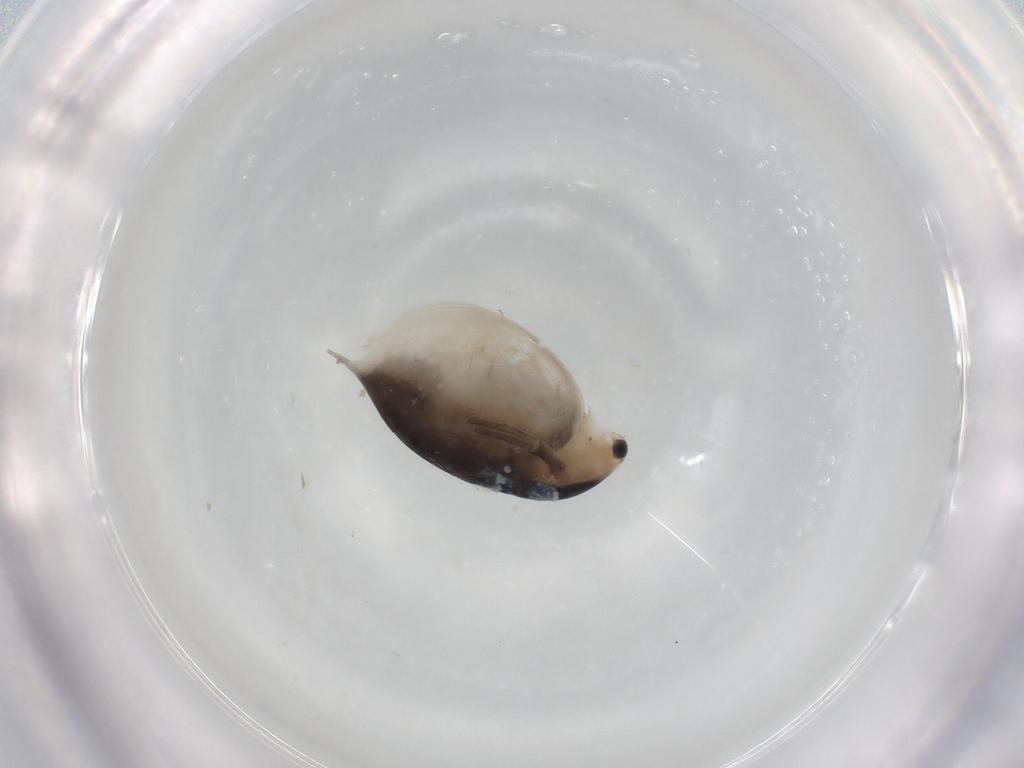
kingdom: Animalia
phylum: Arthropoda
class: Branchiopoda
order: Diplostraca
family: Daphniidae
